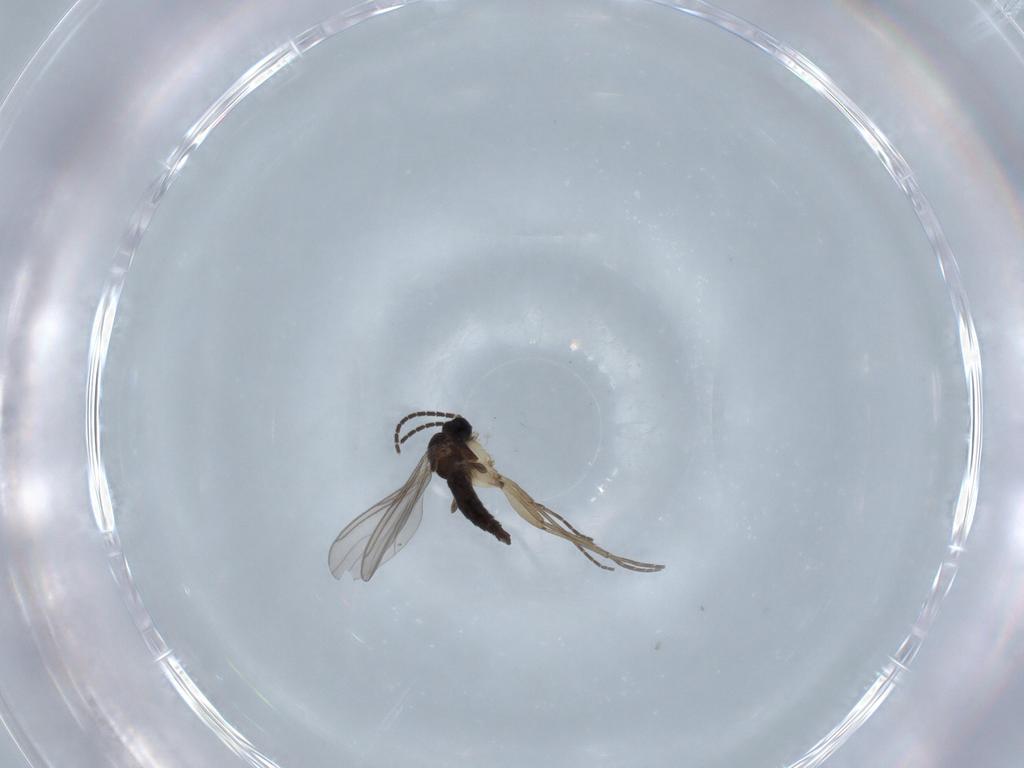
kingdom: Animalia
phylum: Arthropoda
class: Insecta
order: Diptera
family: Sciaridae
